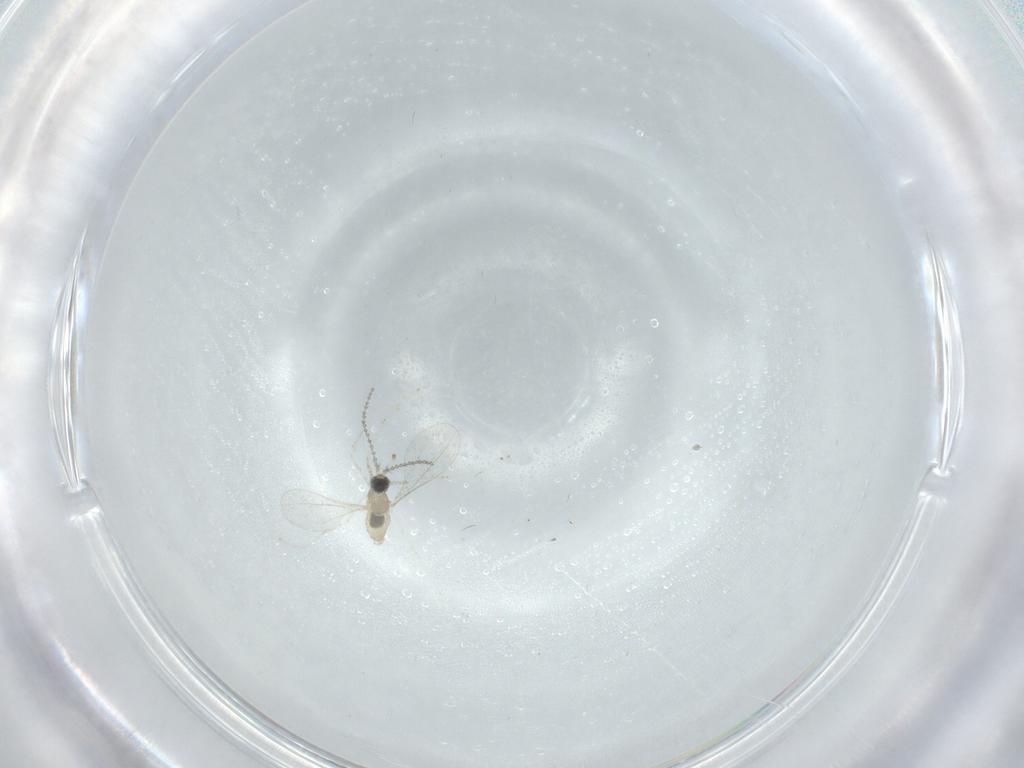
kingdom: Animalia
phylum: Arthropoda
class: Insecta
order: Diptera
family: Cecidomyiidae
